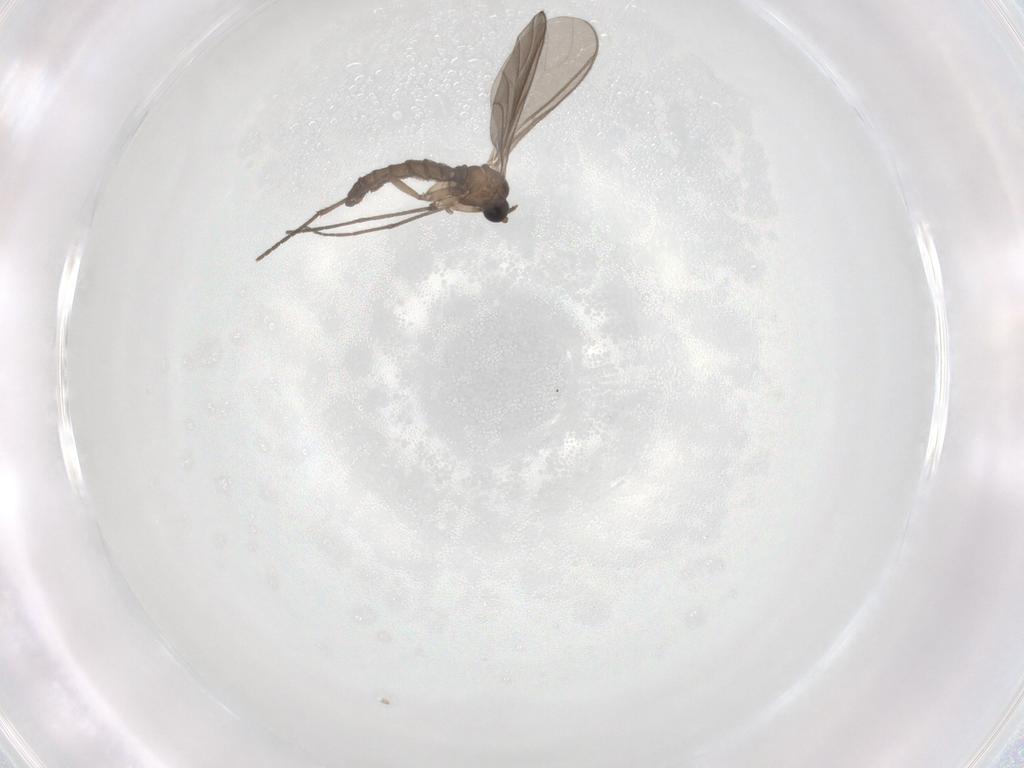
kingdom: Animalia
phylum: Arthropoda
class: Insecta
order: Diptera
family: Sciaridae
